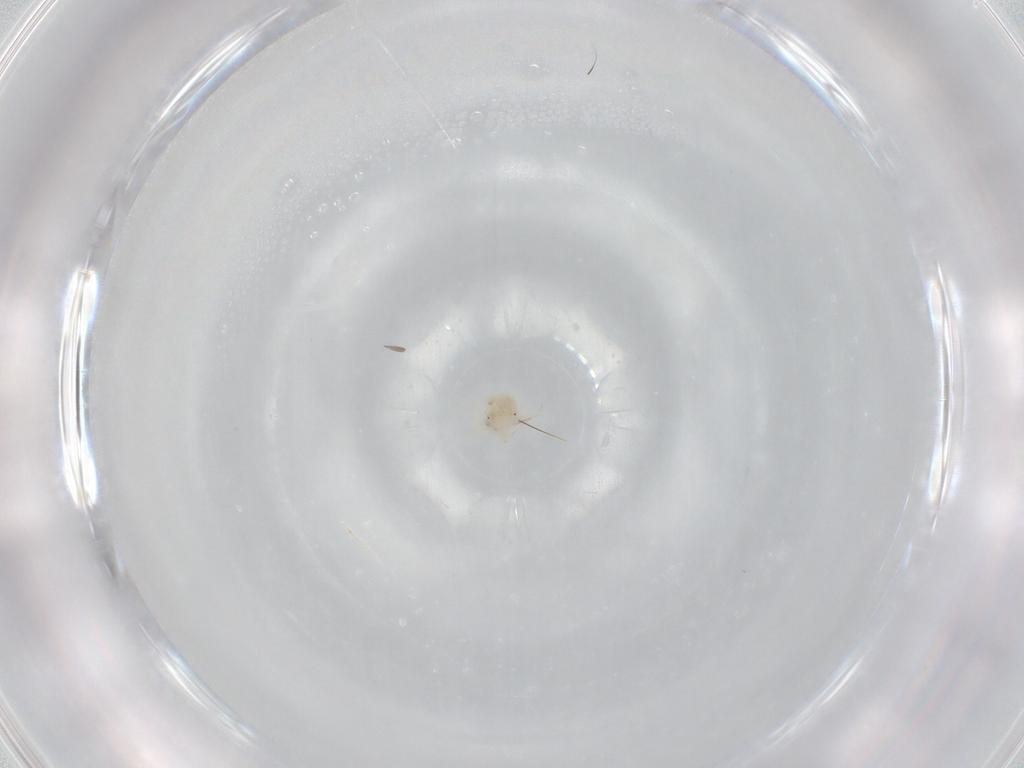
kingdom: Animalia
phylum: Arthropoda
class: Arachnida
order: Trombidiformes
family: Anystidae
